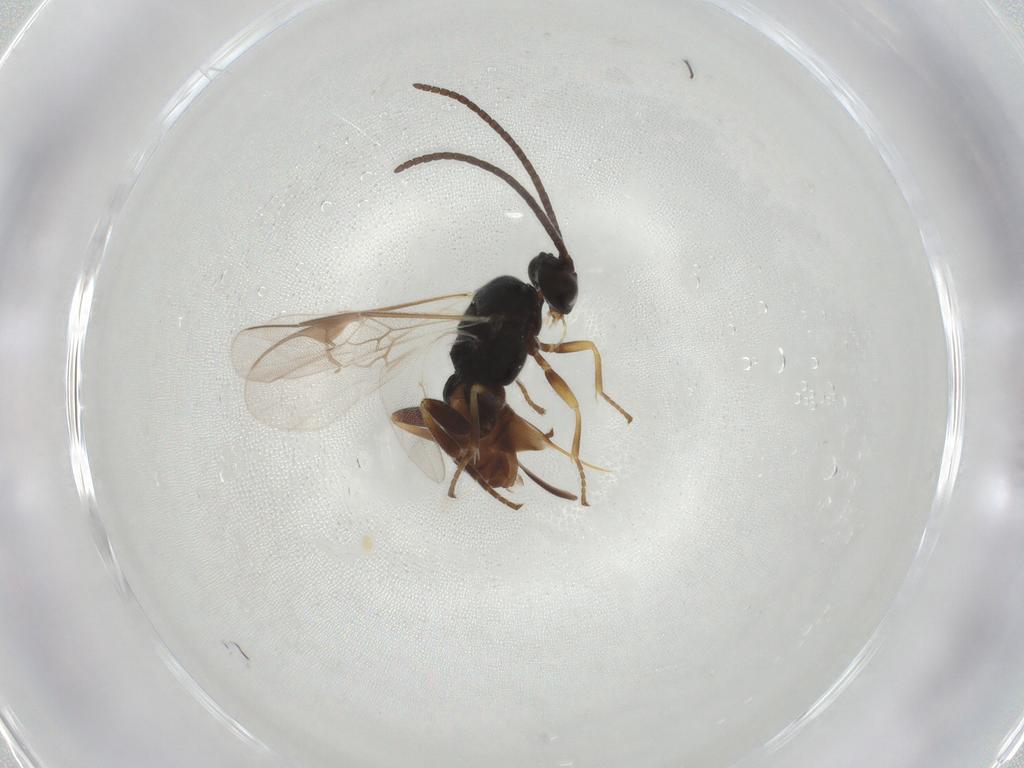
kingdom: Animalia
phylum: Arthropoda
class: Insecta
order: Hymenoptera
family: Braconidae
